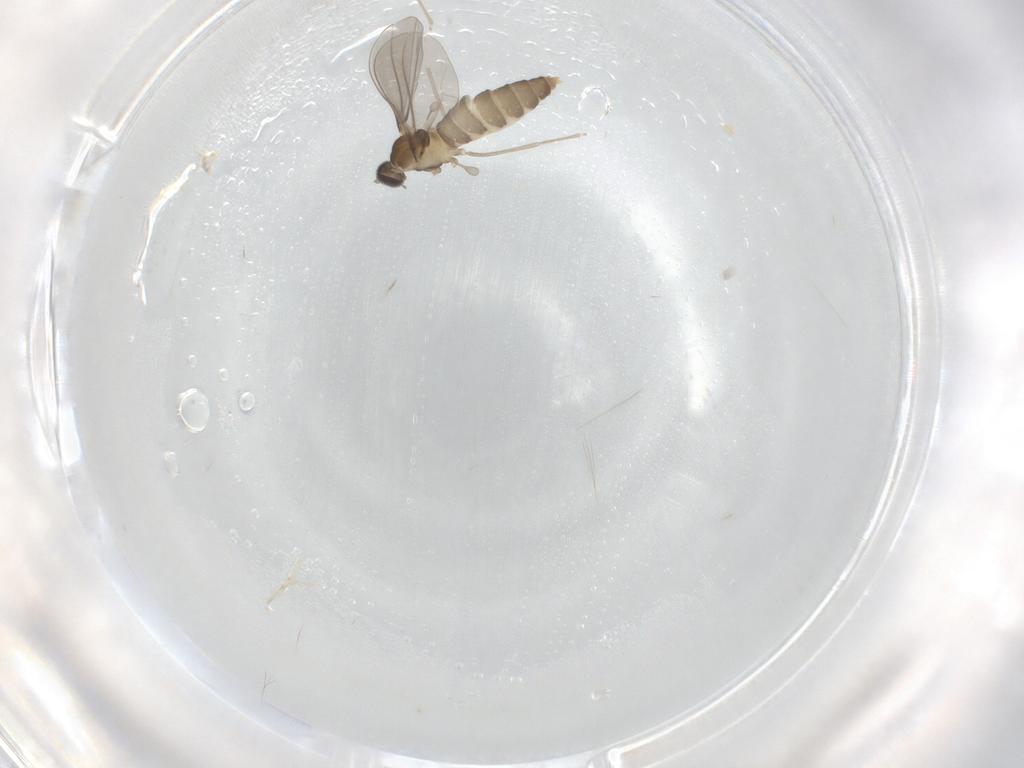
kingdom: Animalia
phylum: Arthropoda
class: Insecta
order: Diptera
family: Cecidomyiidae
